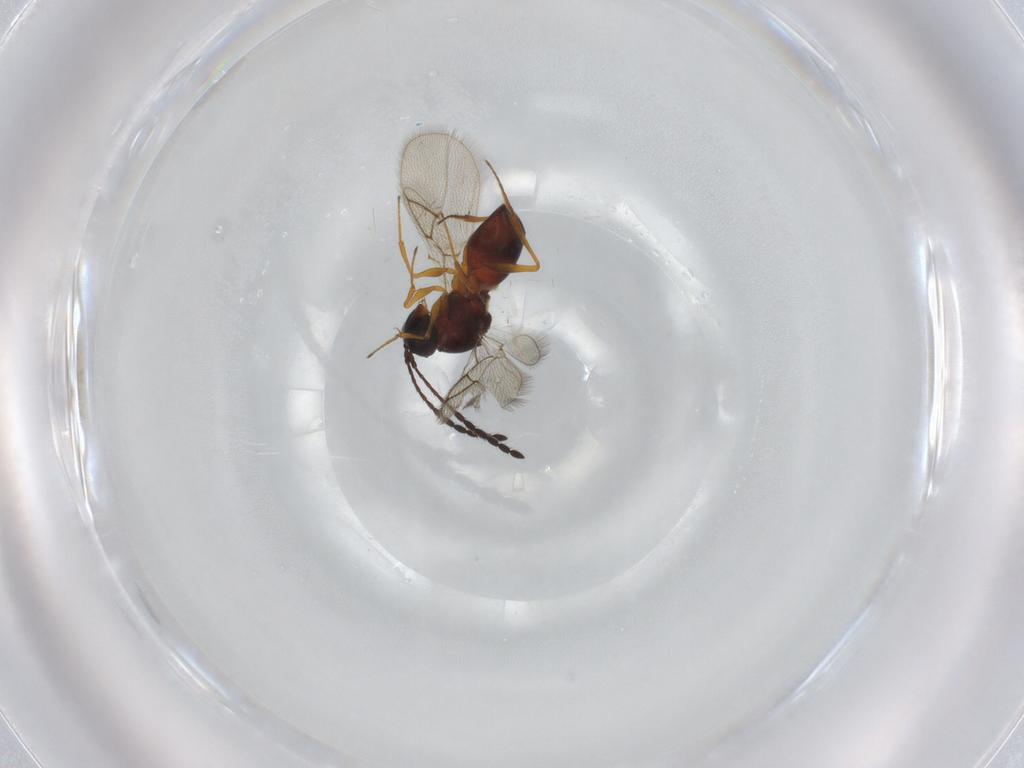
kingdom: Animalia
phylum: Arthropoda
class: Insecta
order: Hymenoptera
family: Figitidae
